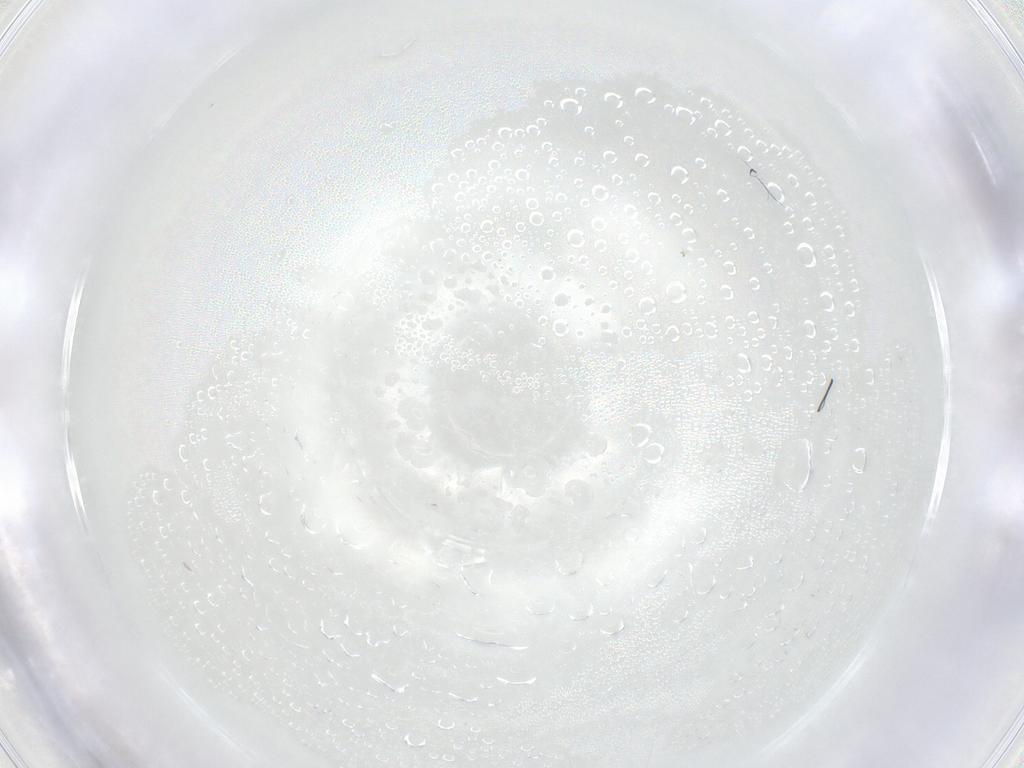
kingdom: Animalia
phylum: Arthropoda
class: Arachnida
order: Trombidiformes
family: Tetranychidae
